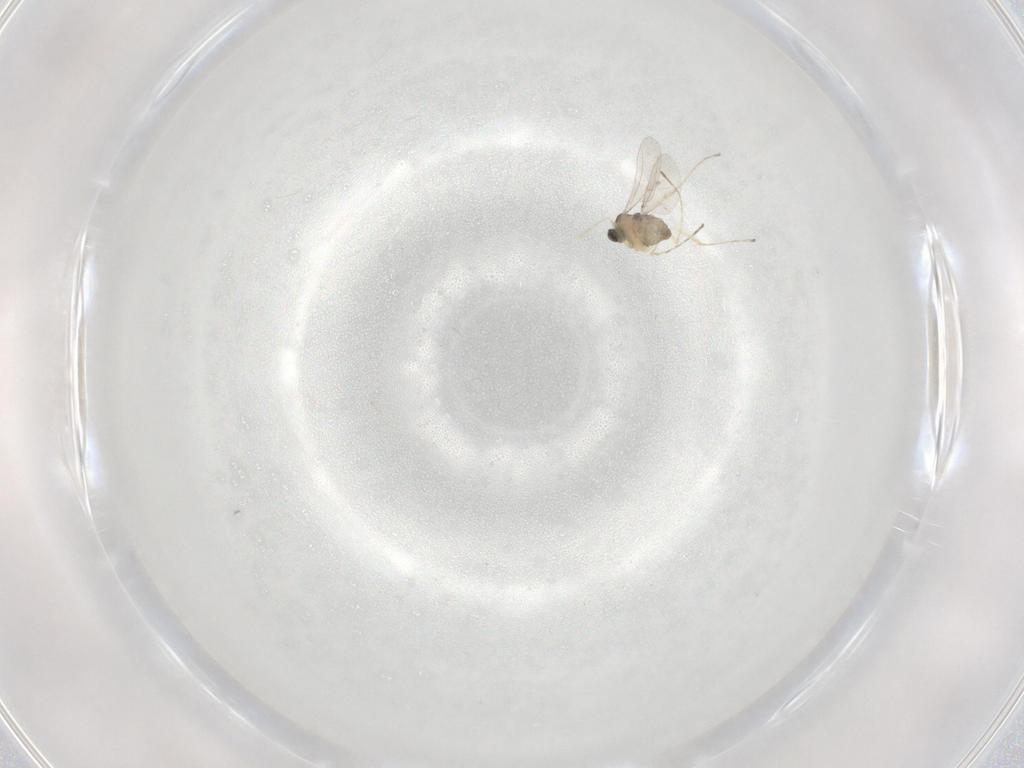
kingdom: Animalia
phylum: Arthropoda
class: Insecta
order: Diptera
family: Cecidomyiidae
